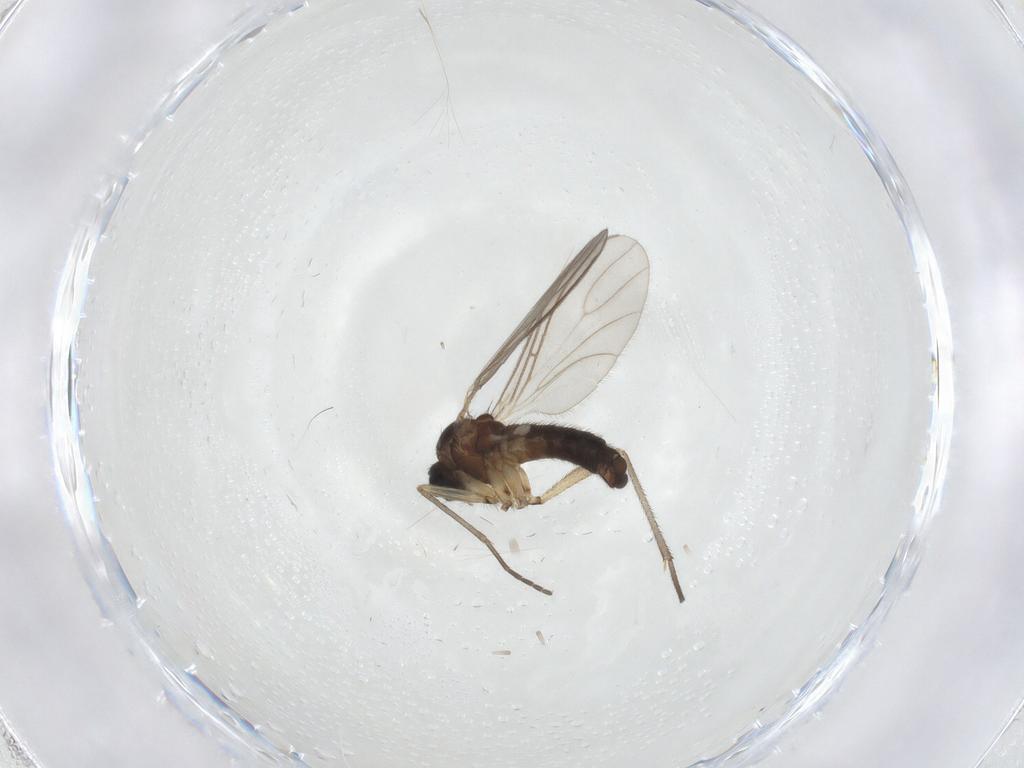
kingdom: Animalia
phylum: Arthropoda
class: Insecta
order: Diptera
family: Sciaridae
